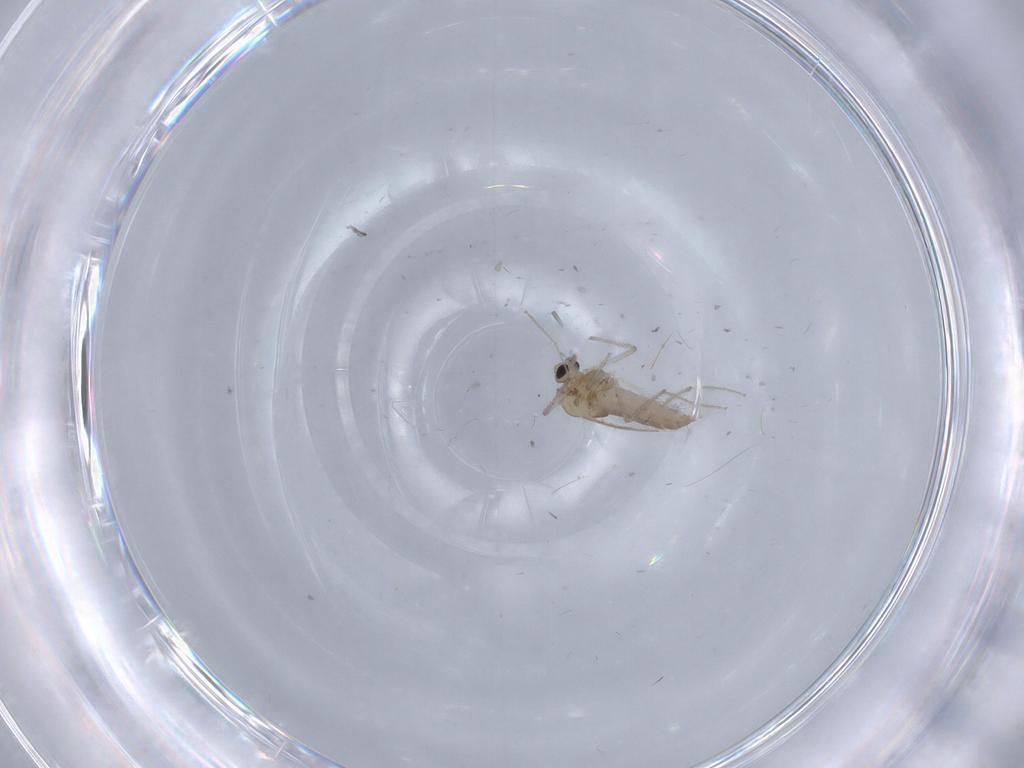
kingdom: Animalia
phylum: Arthropoda
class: Insecta
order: Diptera
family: Chironomidae
